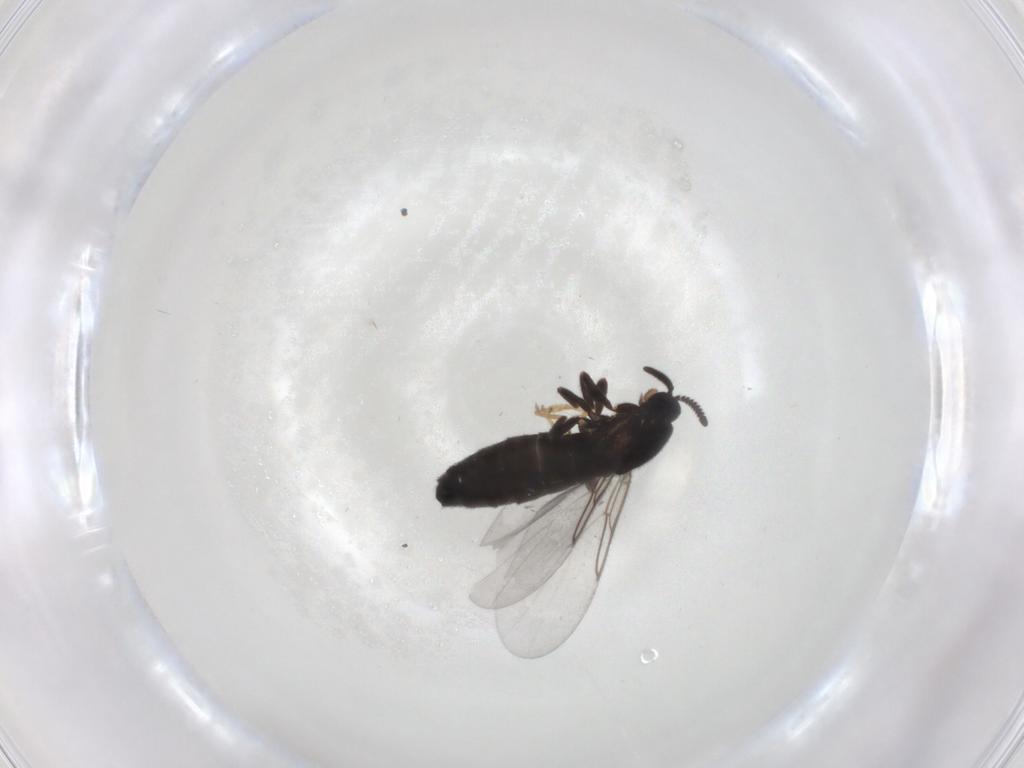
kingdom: Animalia
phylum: Arthropoda
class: Insecta
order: Diptera
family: Scatopsidae
